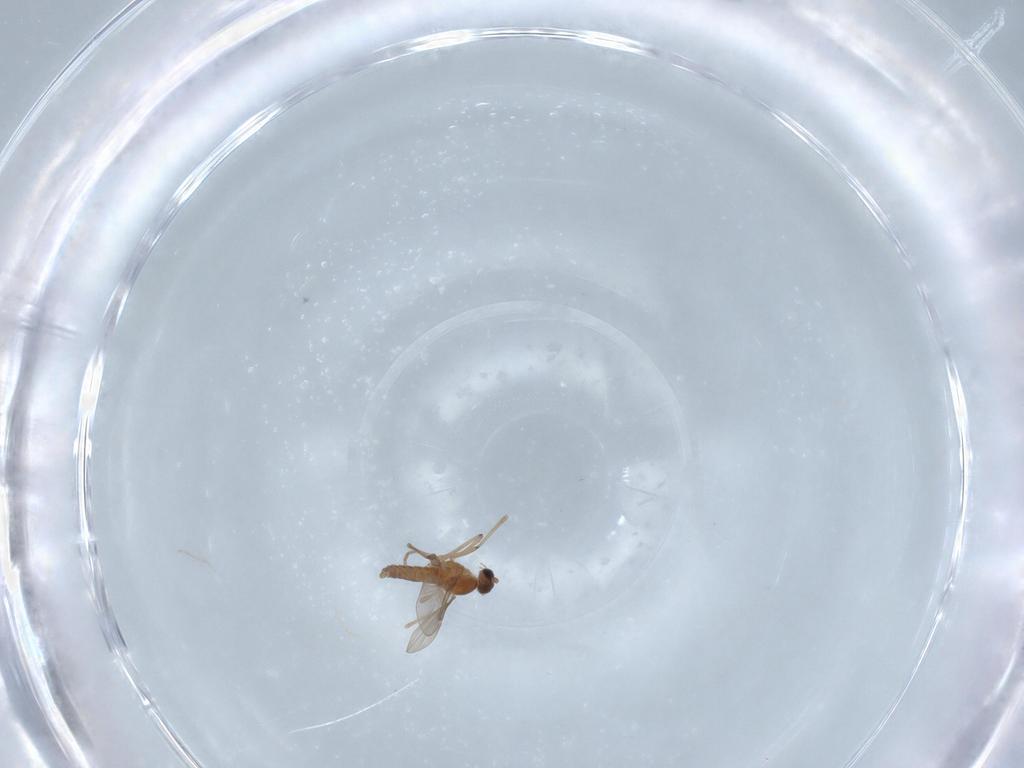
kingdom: Animalia
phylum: Arthropoda
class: Insecta
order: Diptera
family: Cecidomyiidae
